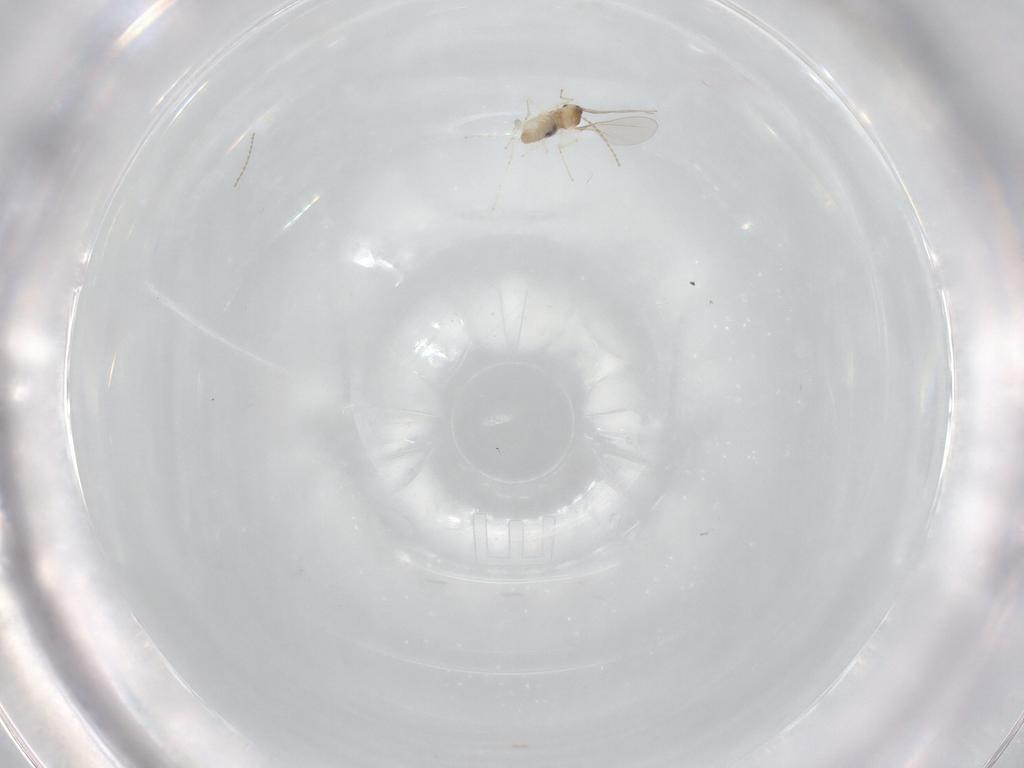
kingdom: Animalia
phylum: Arthropoda
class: Insecta
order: Diptera
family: Cecidomyiidae
